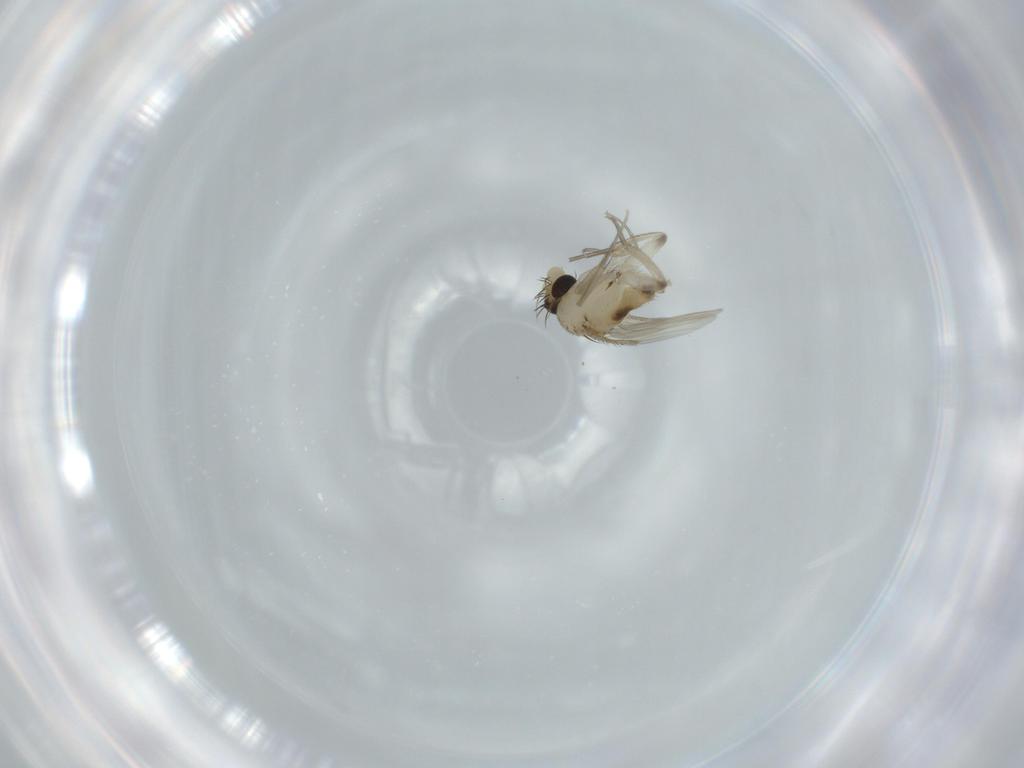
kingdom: Animalia
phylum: Arthropoda
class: Insecta
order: Diptera
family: Phoridae
